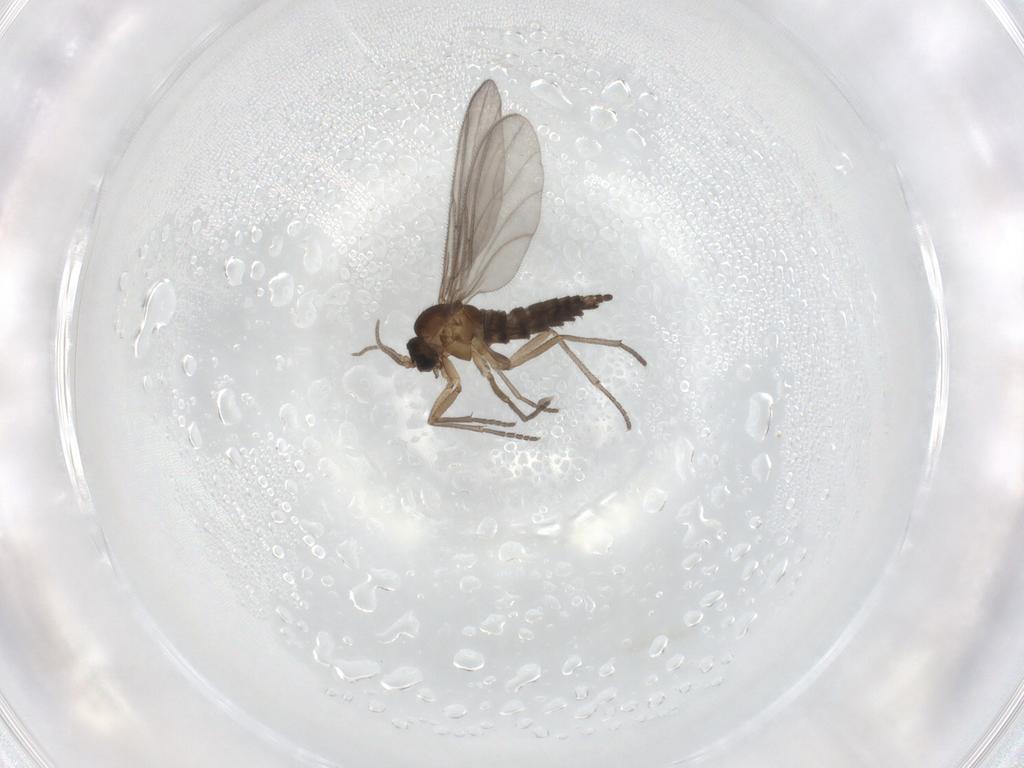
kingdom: Animalia
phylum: Arthropoda
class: Insecta
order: Diptera
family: Sciaridae
